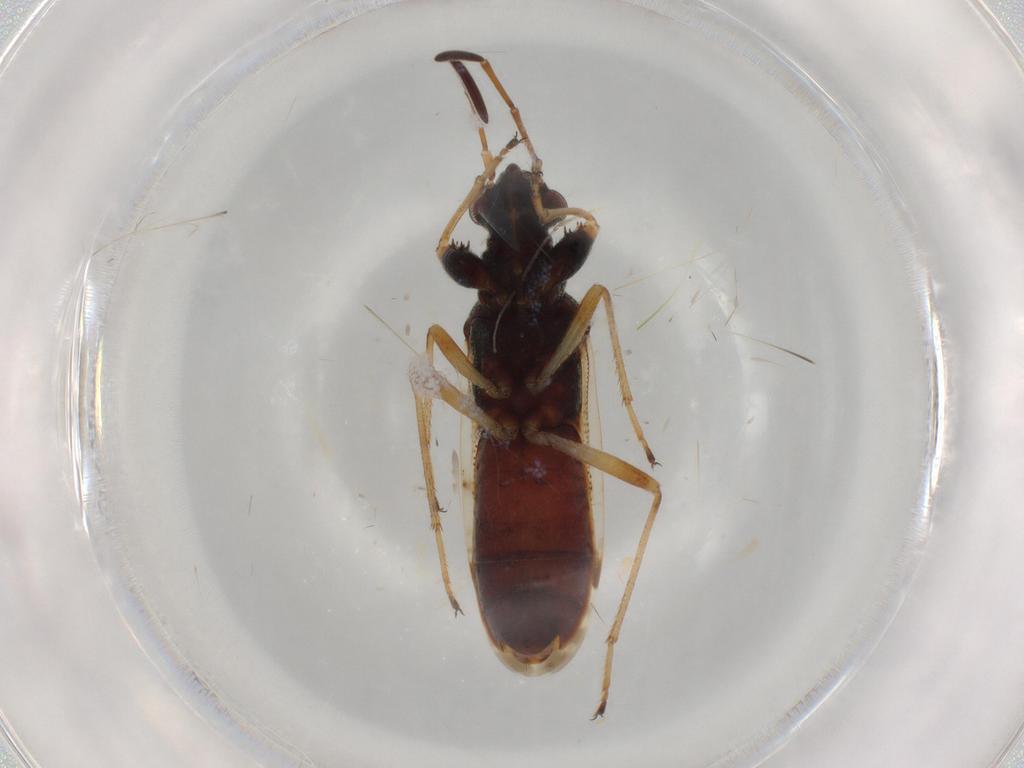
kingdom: Animalia
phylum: Arthropoda
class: Insecta
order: Hemiptera
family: Rhyparochromidae
